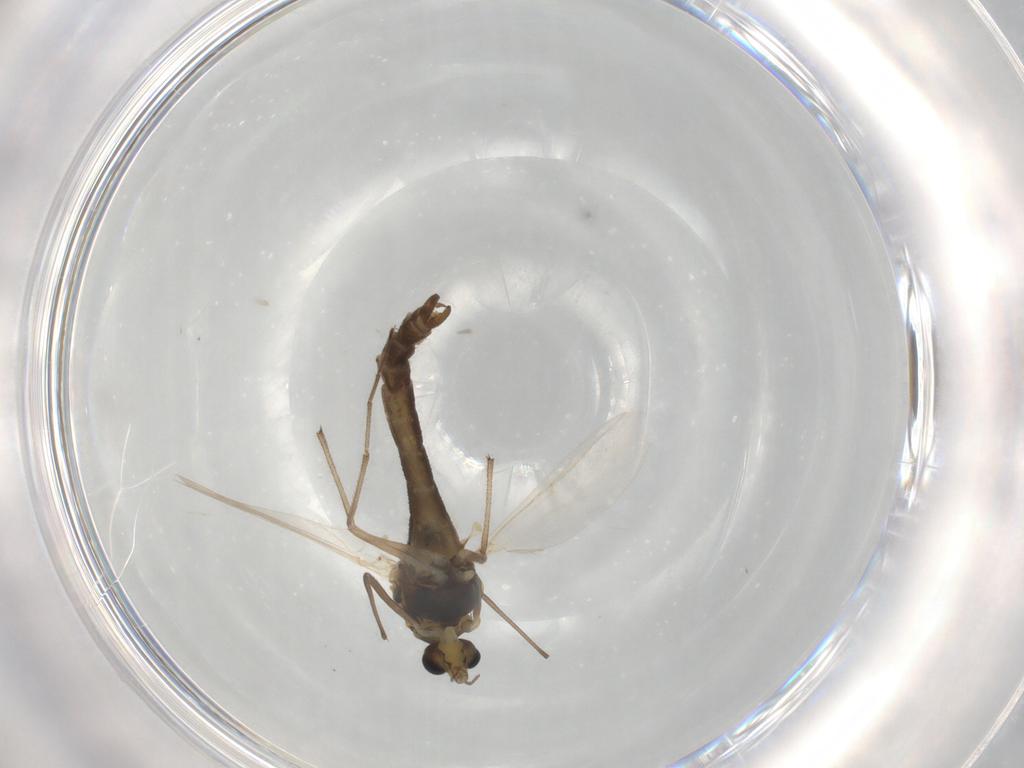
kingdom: Animalia
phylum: Arthropoda
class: Insecta
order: Diptera
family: Chironomidae
